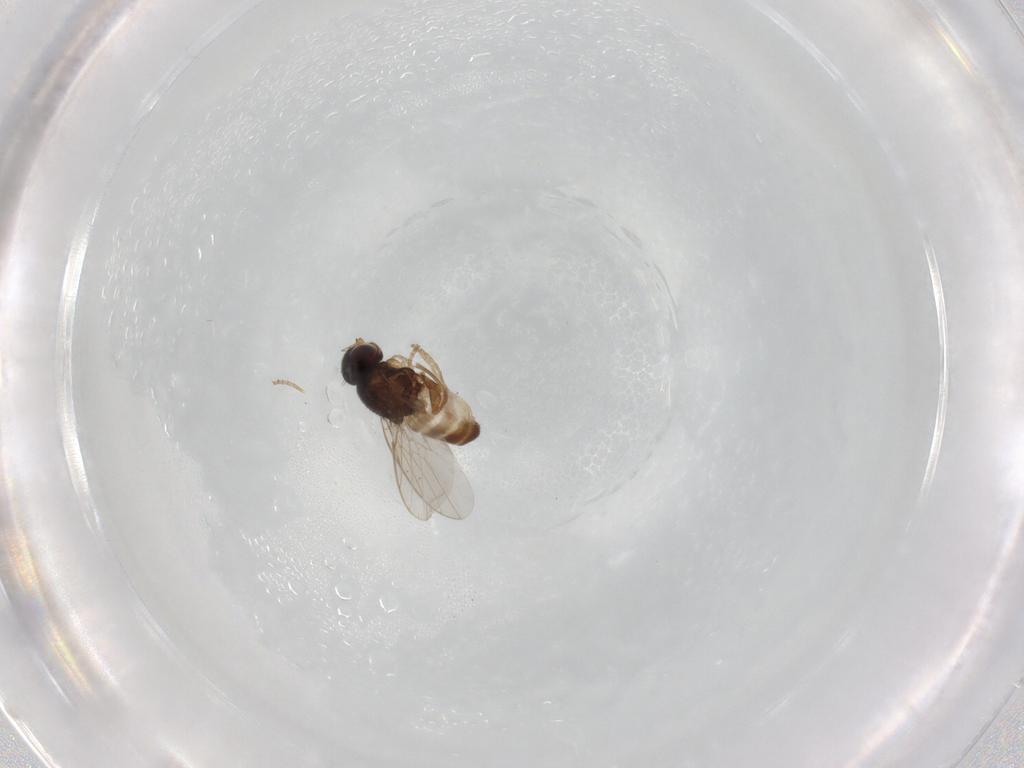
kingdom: Animalia
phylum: Arthropoda
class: Insecta
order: Diptera
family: Chloropidae
